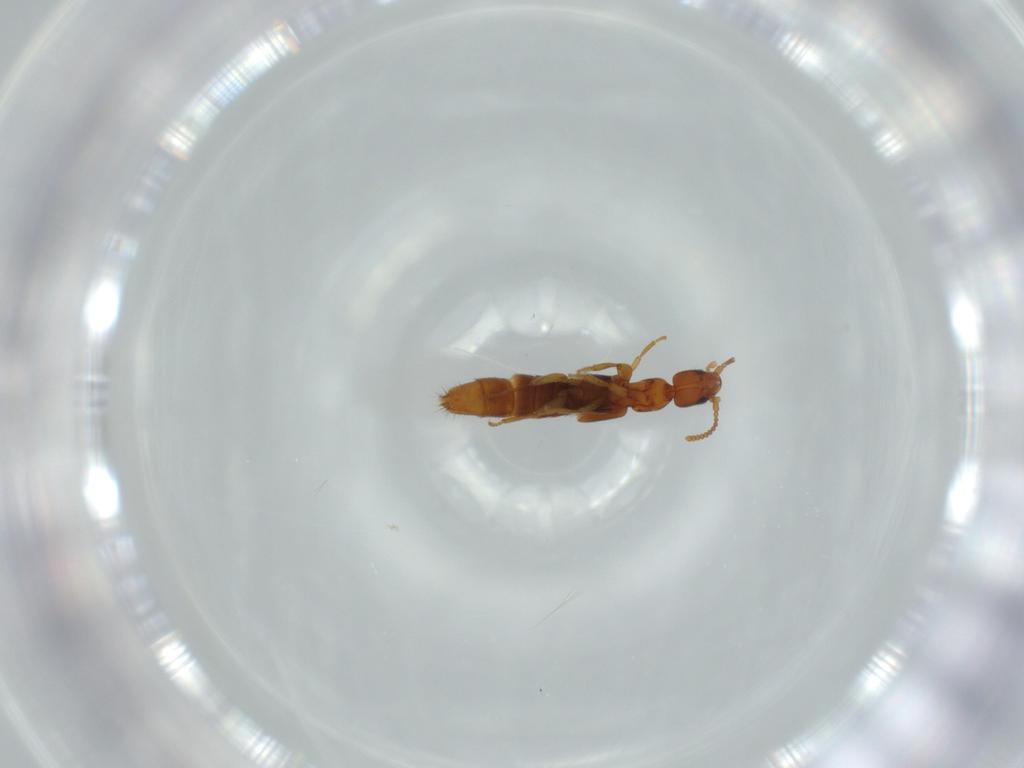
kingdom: Animalia
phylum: Arthropoda
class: Insecta
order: Coleoptera
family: Staphylinidae
